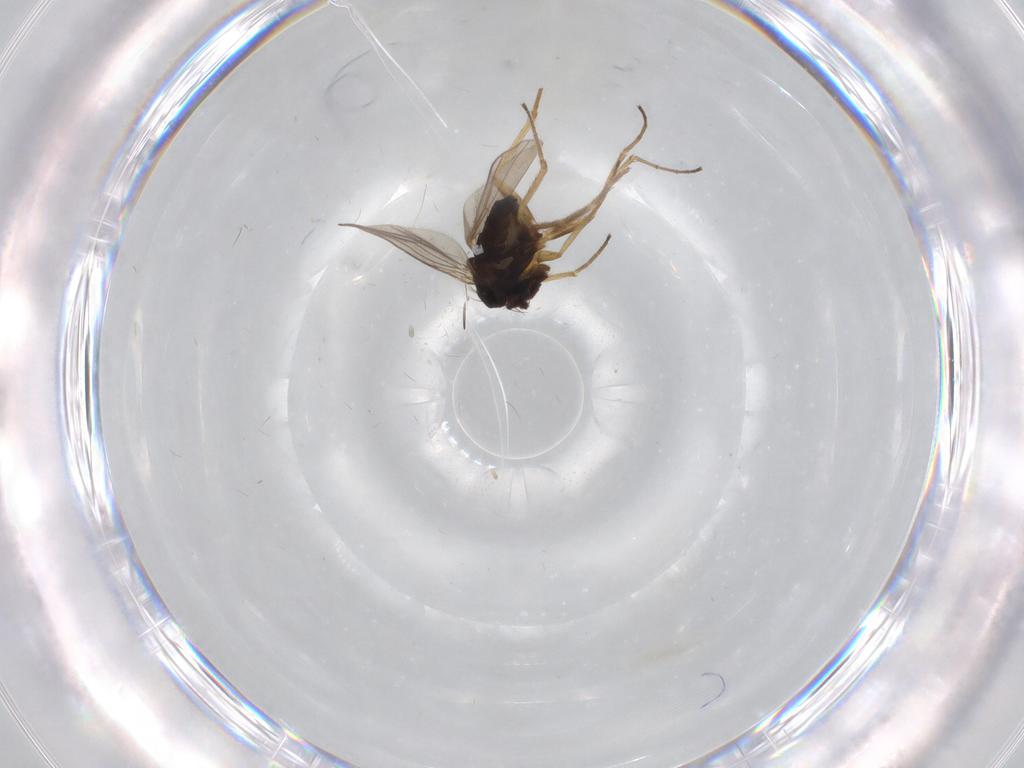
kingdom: Animalia
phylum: Arthropoda
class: Insecta
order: Diptera
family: Dolichopodidae
